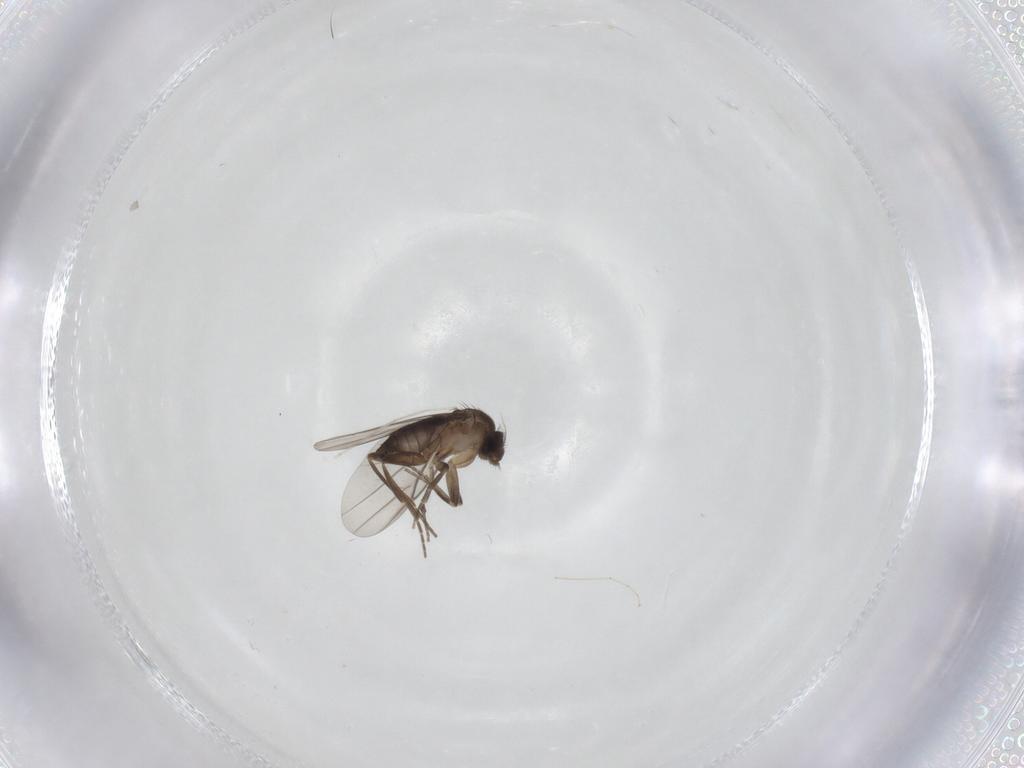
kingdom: Animalia
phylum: Arthropoda
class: Insecta
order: Diptera
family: Cecidomyiidae
